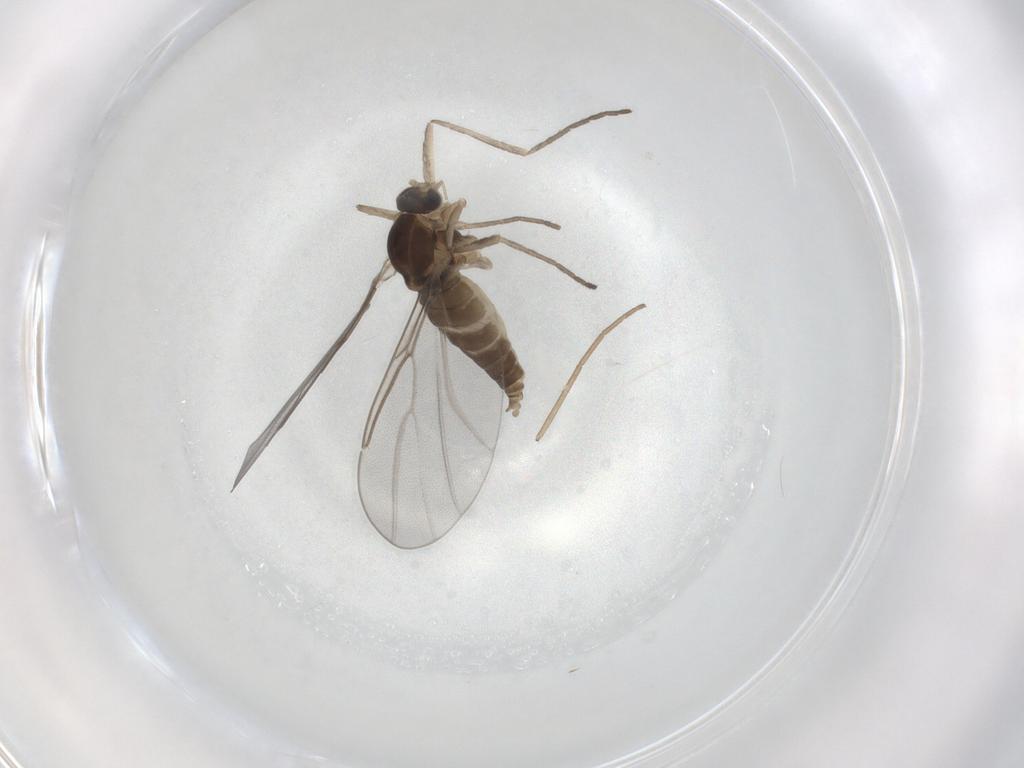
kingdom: Animalia
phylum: Arthropoda
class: Insecta
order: Diptera
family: Cecidomyiidae
